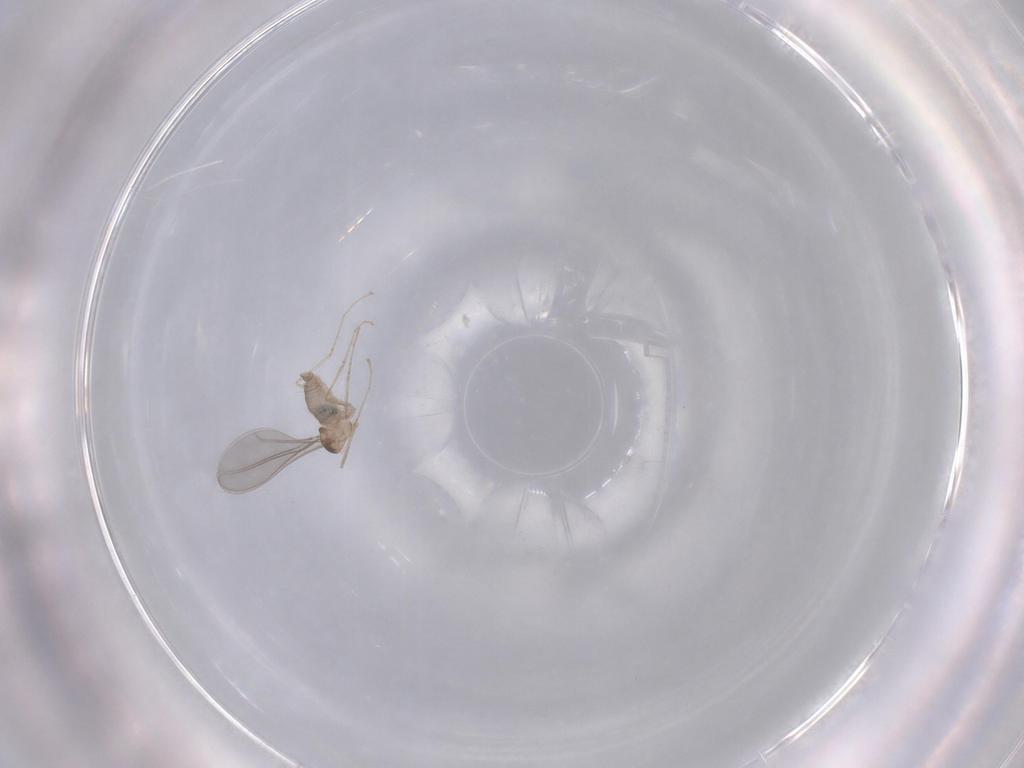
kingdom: Animalia
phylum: Arthropoda
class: Insecta
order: Diptera
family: Cecidomyiidae
